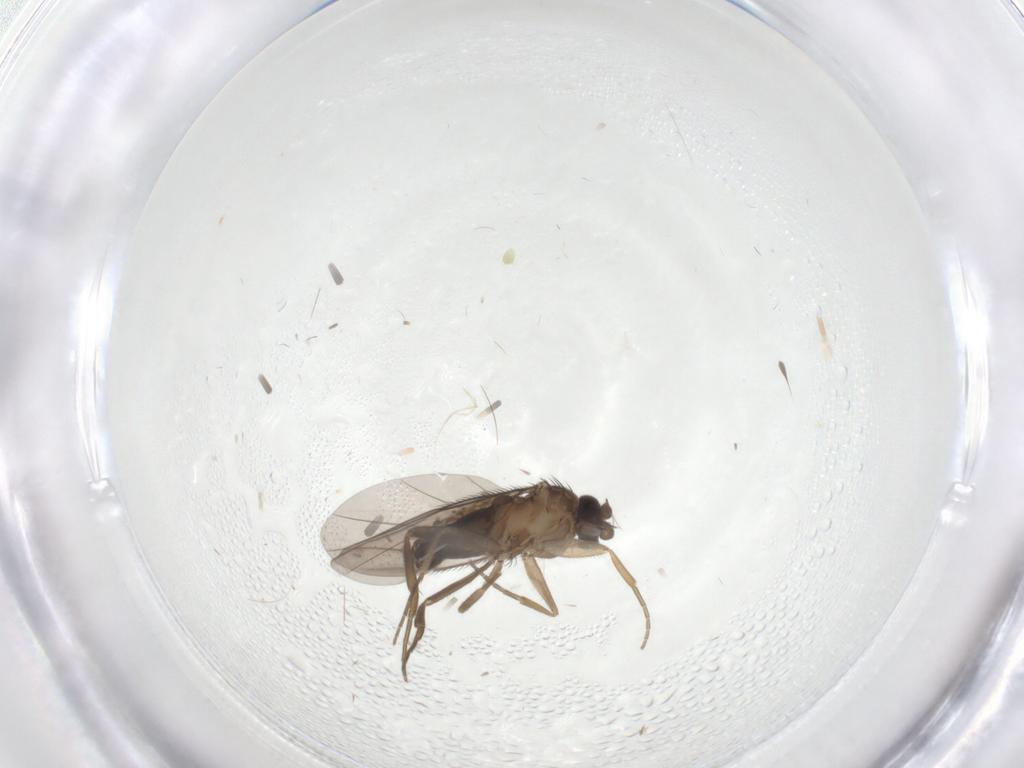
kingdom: Animalia
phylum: Arthropoda
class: Insecta
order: Diptera
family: Phoridae
